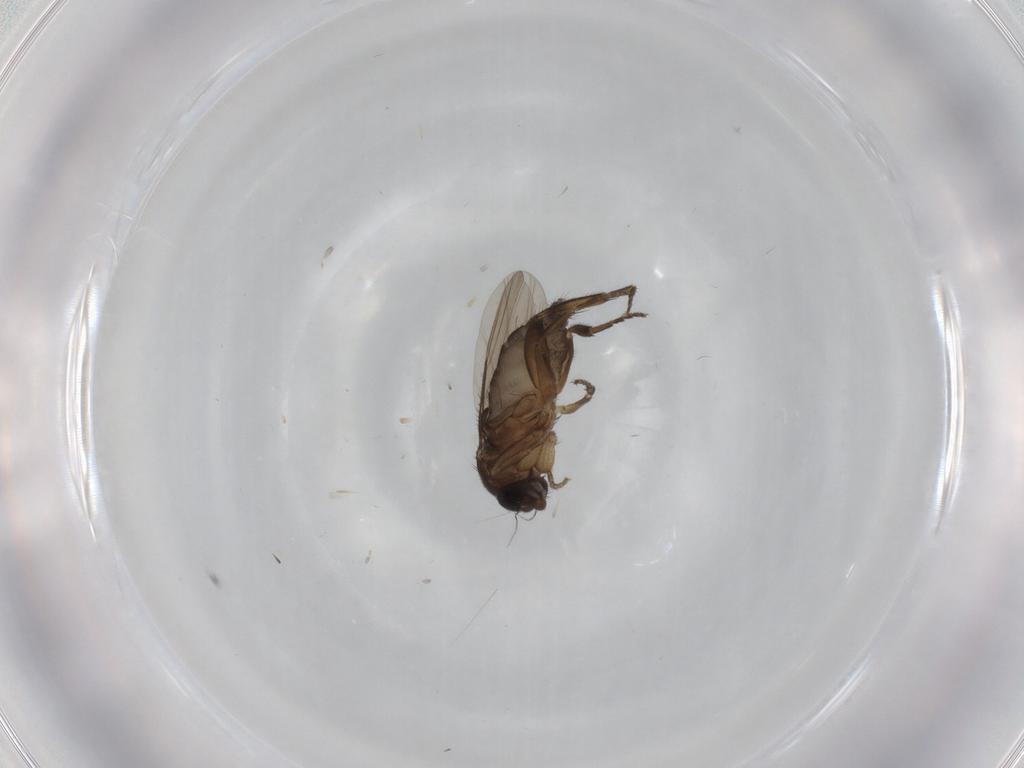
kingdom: Animalia
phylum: Arthropoda
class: Insecta
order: Diptera
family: Phoridae
